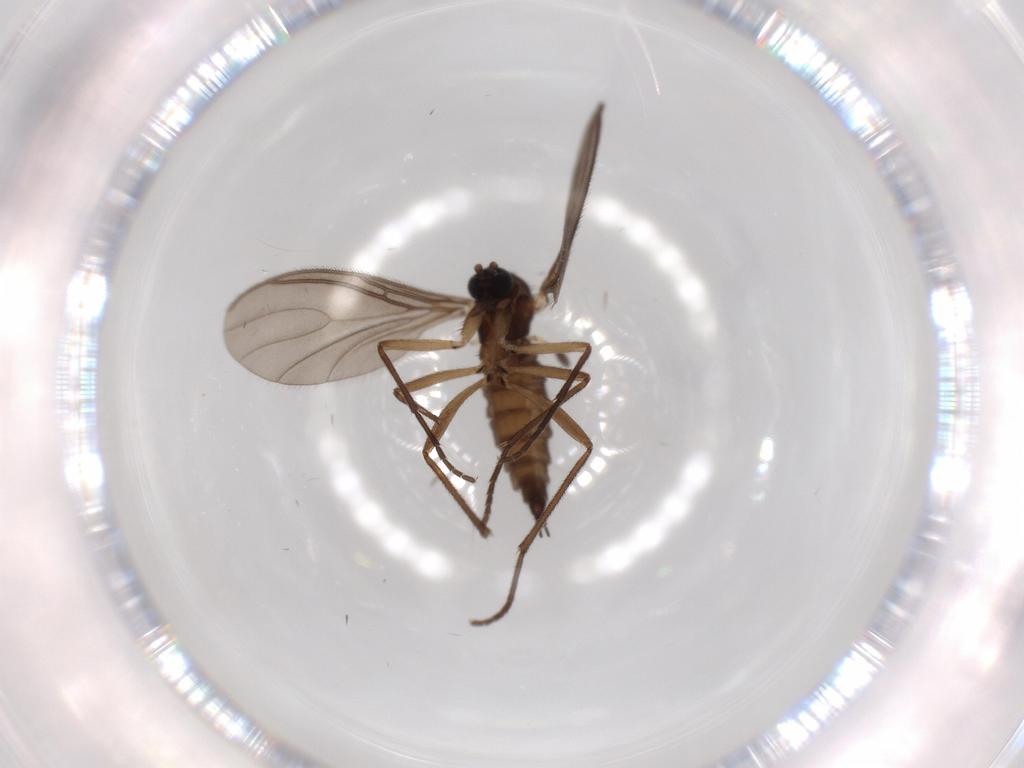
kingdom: Animalia
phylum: Arthropoda
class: Insecta
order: Diptera
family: Sciaridae
